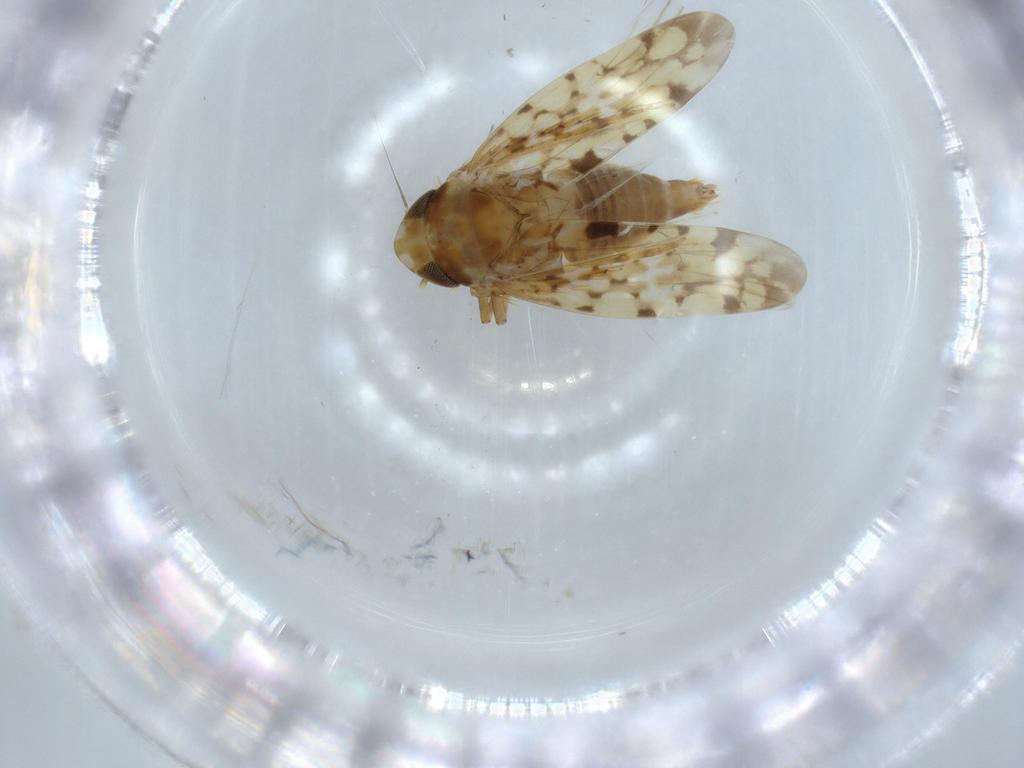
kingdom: Animalia
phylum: Arthropoda
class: Insecta
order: Hemiptera
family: Cicadellidae
